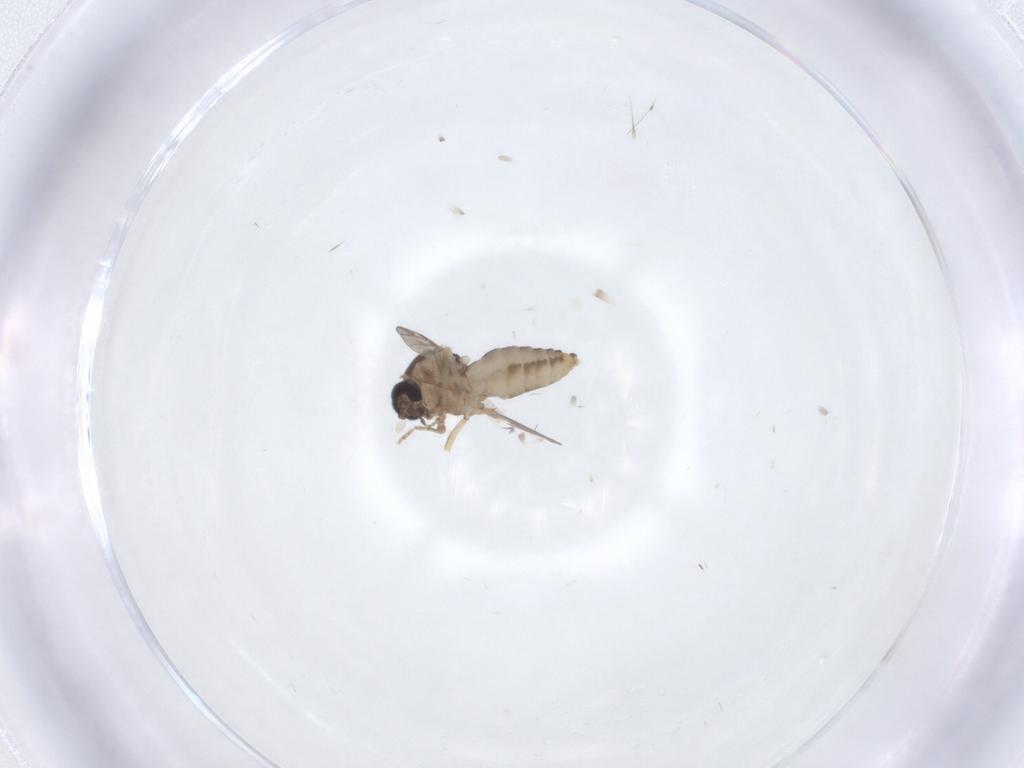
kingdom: Animalia
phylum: Arthropoda
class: Insecta
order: Diptera
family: Ceratopogonidae
